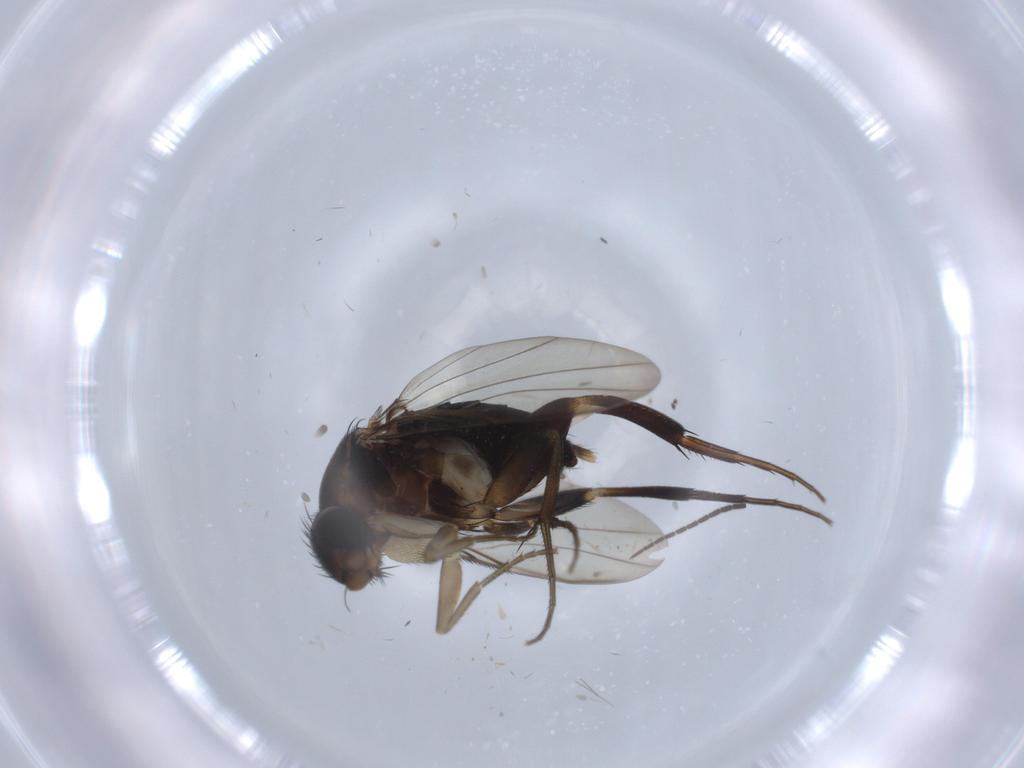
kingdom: Animalia
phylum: Arthropoda
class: Insecta
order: Diptera
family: Phoridae
